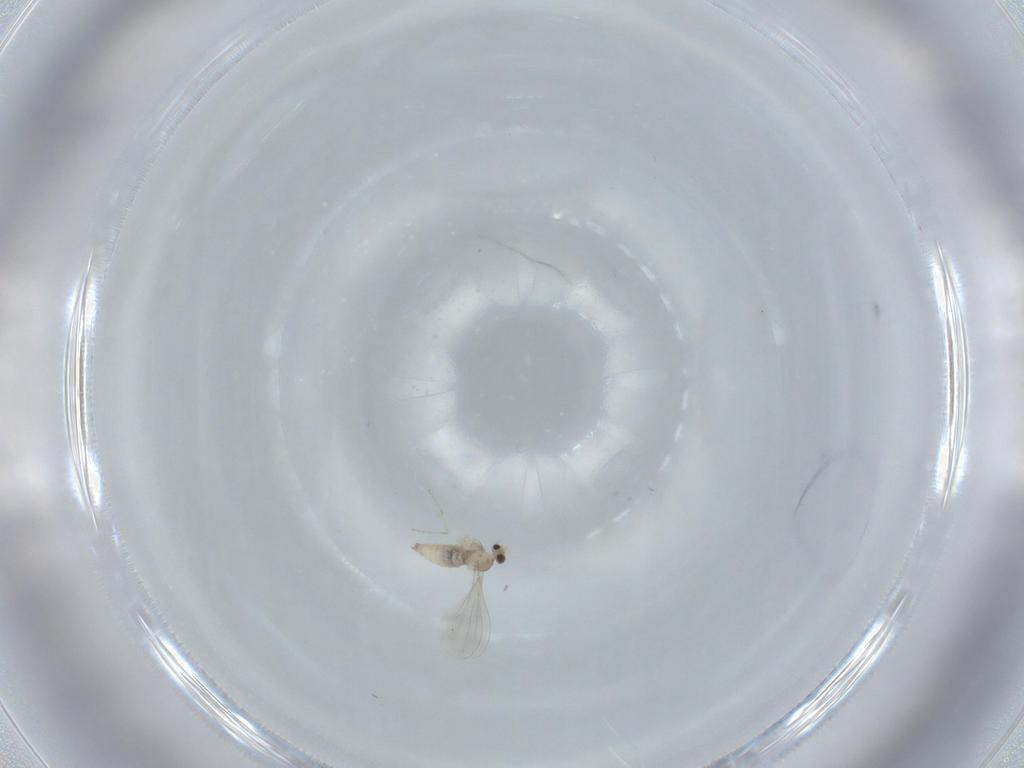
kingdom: Animalia
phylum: Arthropoda
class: Insecta
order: Diptera
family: Cecidomyiidae
